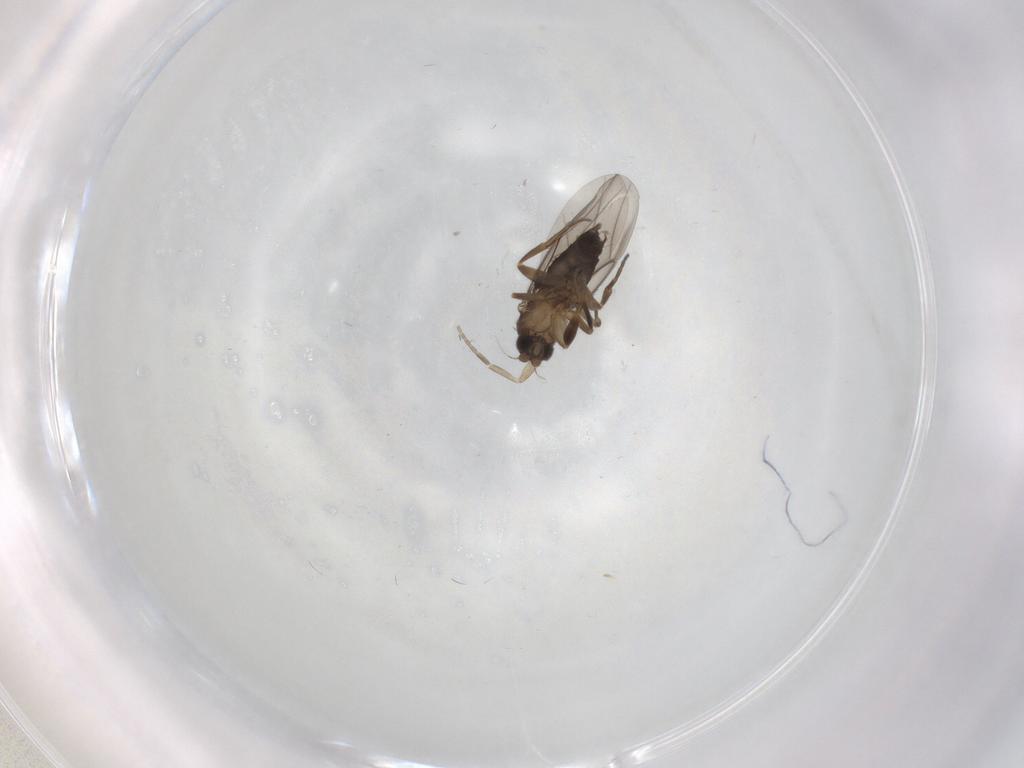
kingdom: Animalia
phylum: Arthropoda
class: Insecta
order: Diptera
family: Phoridae
